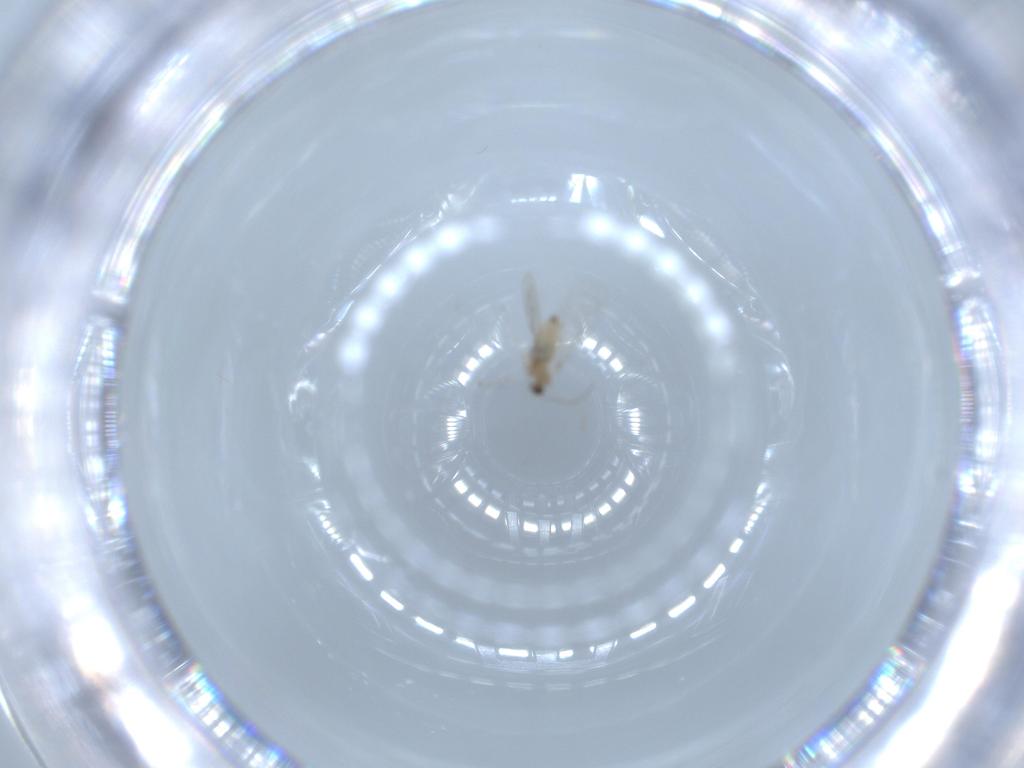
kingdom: Animalia
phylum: Arthropoda
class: Insecta
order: Diptera
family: Cecidomyiidae
